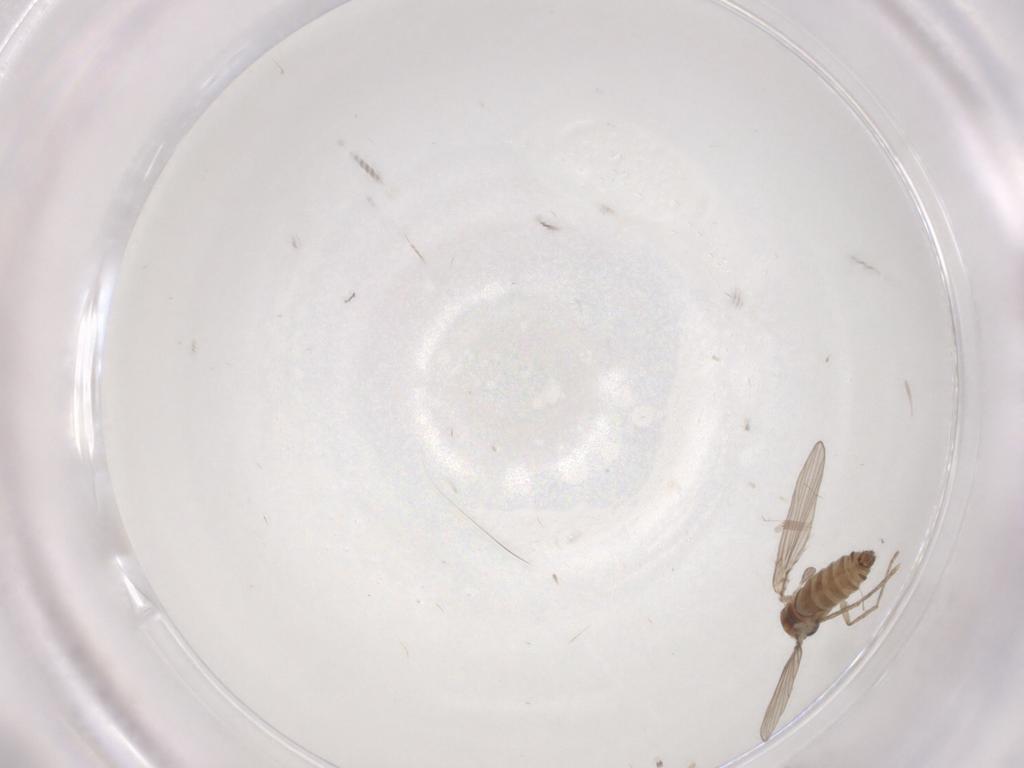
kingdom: Animalia
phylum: Arthropoda
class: Insecta
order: Diptera
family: Psychodidae
